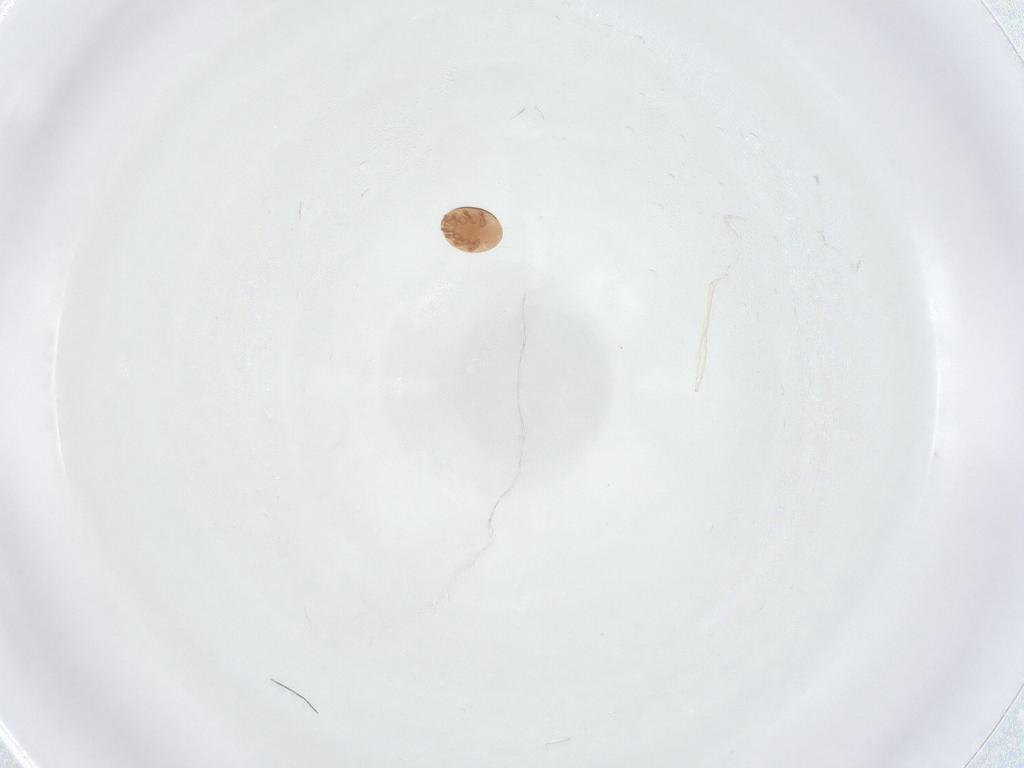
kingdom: Animalia
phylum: Arthropoda
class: Arachnida
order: Mesostigmata
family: Trematuridae
